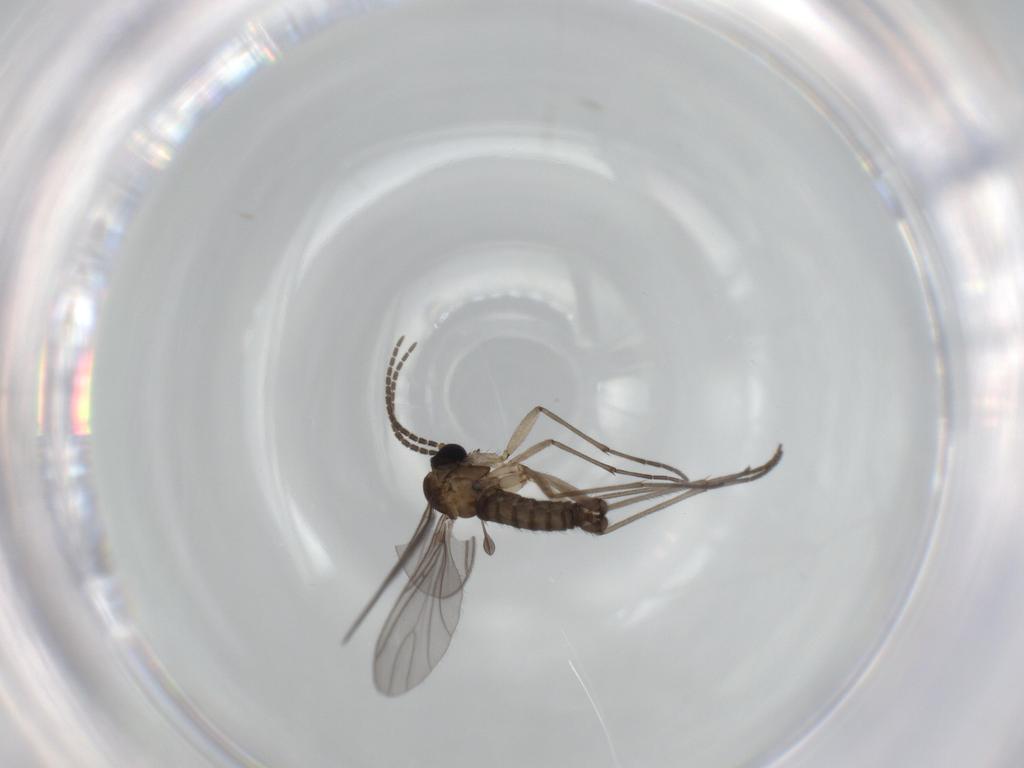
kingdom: Animalia
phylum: Arthropoda
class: Insecta
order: Diptera
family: Sciaridae
